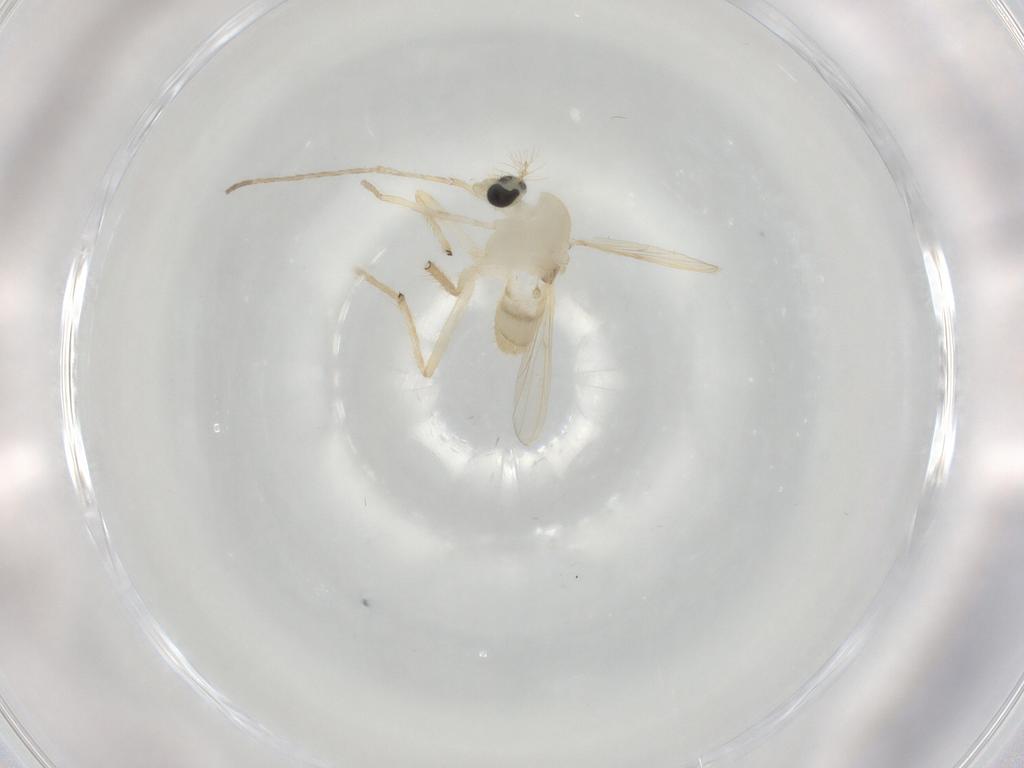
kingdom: Animalia
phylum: Arthropoda
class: Insecta
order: Diptera
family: Chironomidae
